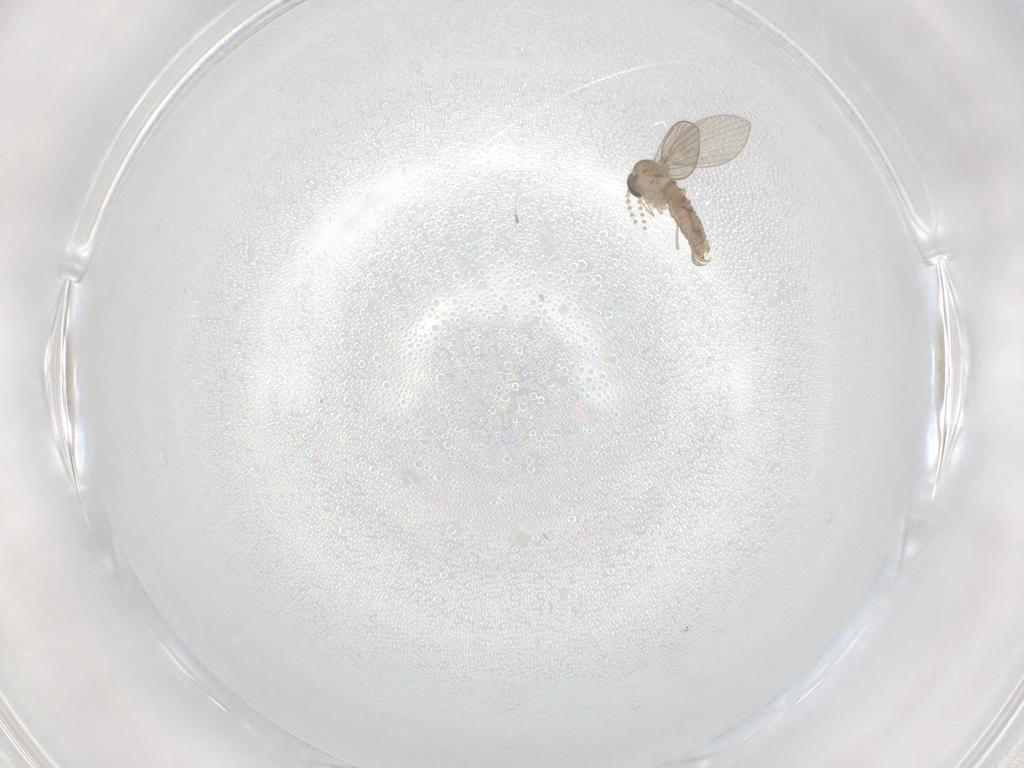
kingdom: Animalia
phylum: Arthropoda
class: Insecta
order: Diptera
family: Psychodidae
